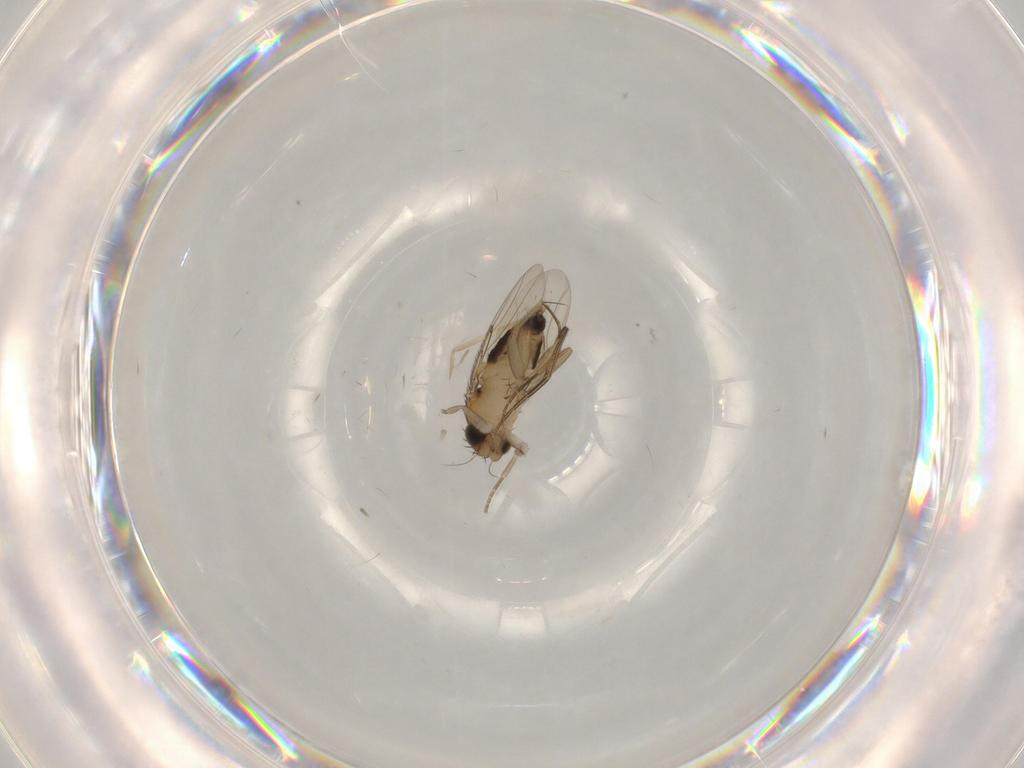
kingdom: Animalia
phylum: Arthropoda
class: Insecta
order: Diptera
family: Phoridae
